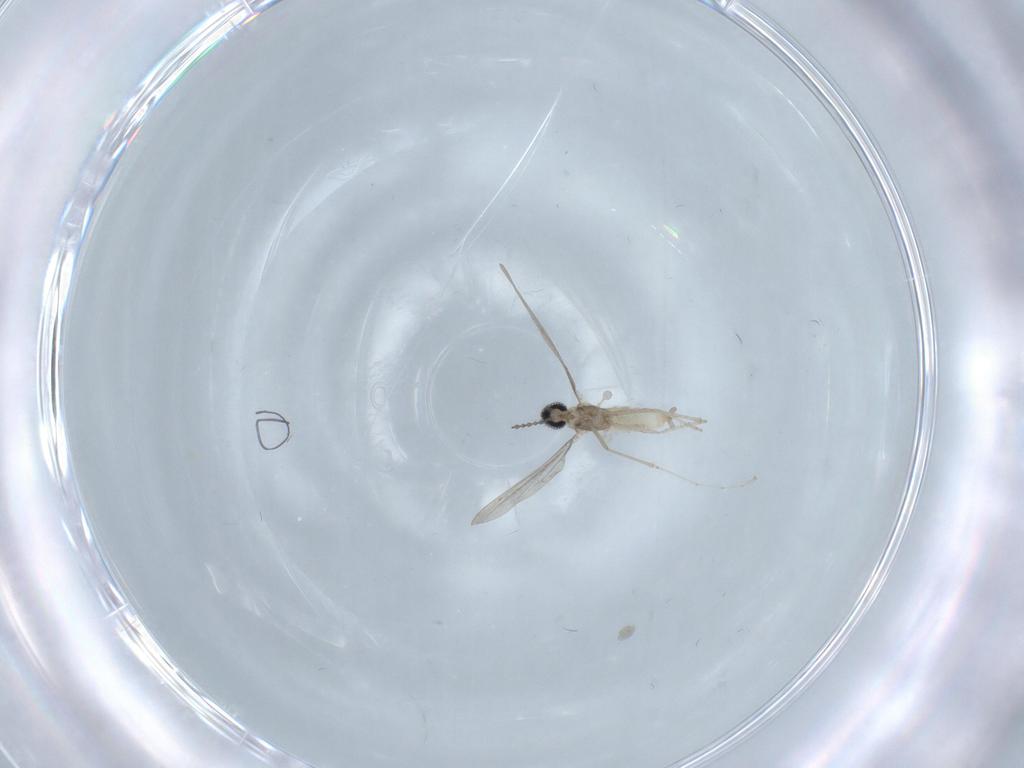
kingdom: Animalia
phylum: Arthropoda
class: Insecta
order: Diptera
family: Cecidomyiidae
